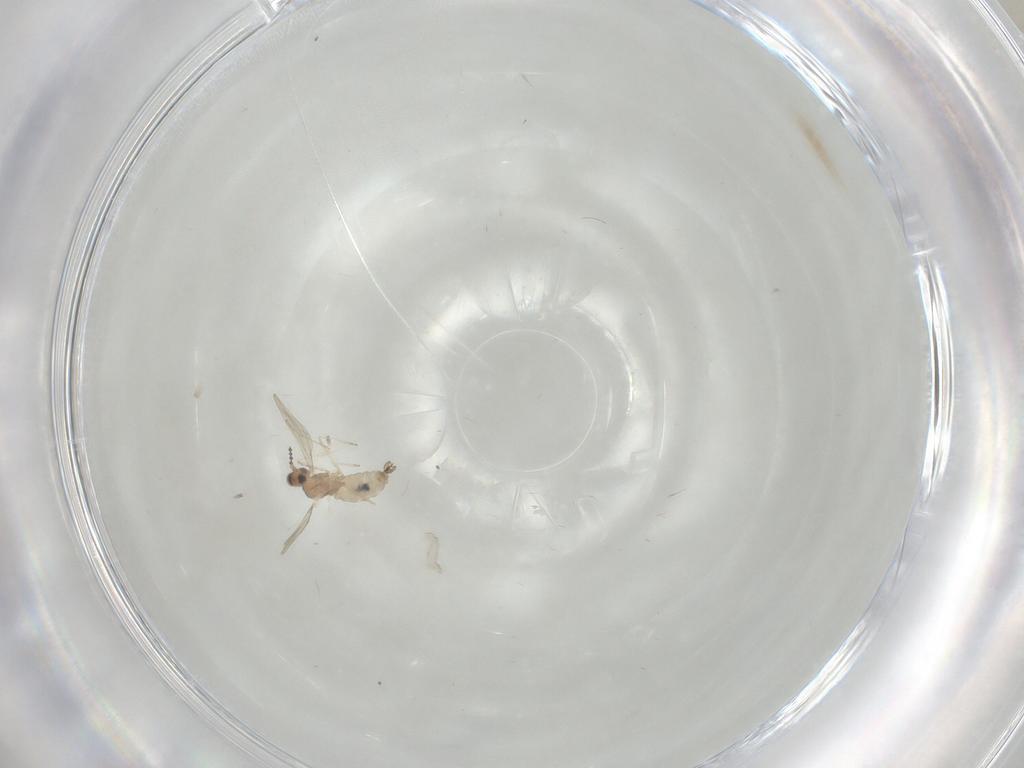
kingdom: Animalia
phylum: Arthropoda
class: Insecta
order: Diptera
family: Cecidomyiidae
